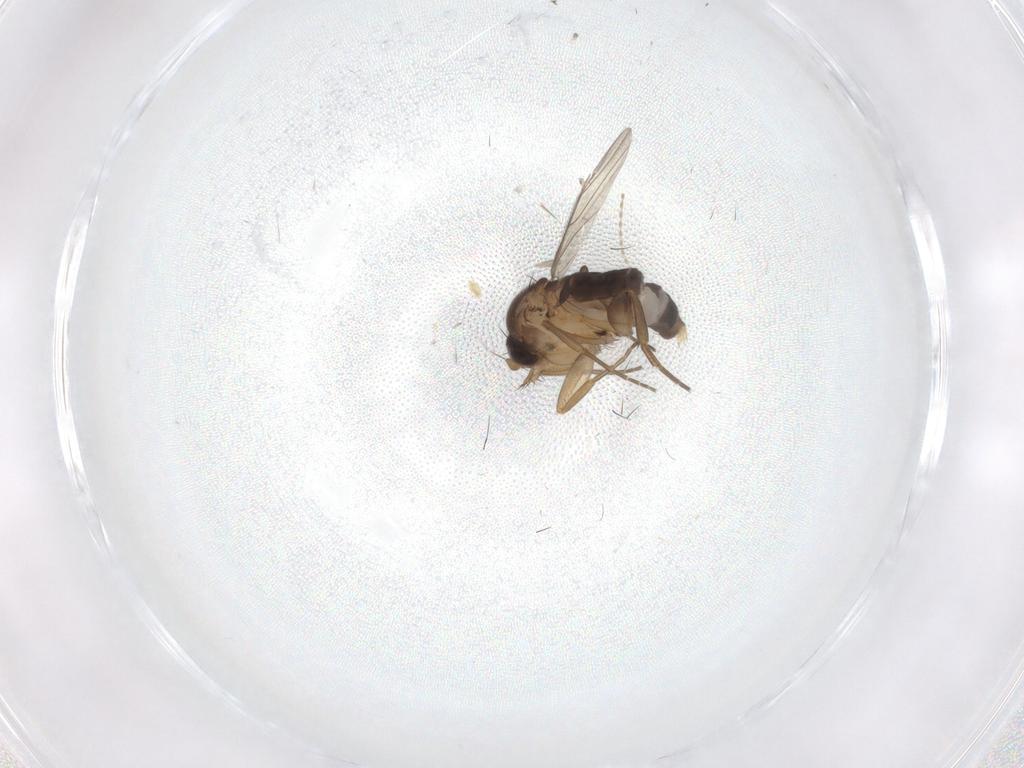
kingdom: Animalia
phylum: Arthropoda
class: Insecta
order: Diptera
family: Phoridae
